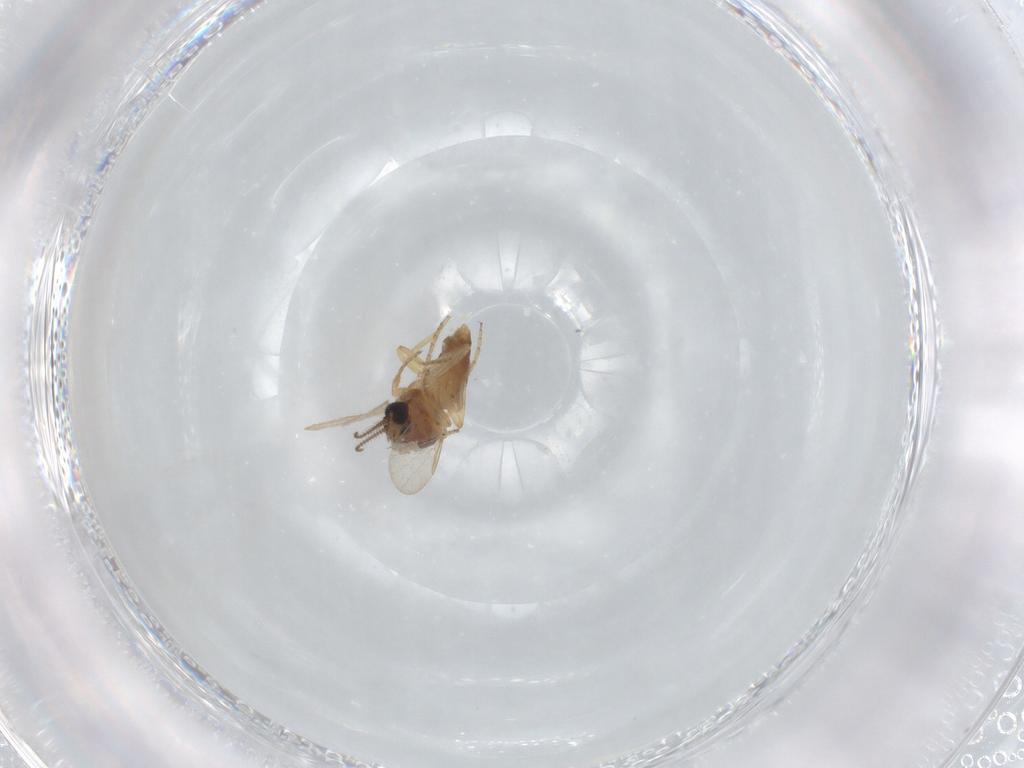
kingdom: Animalia
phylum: Arthropoda
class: Insecta
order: Diptera
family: Ceratopogonidae
